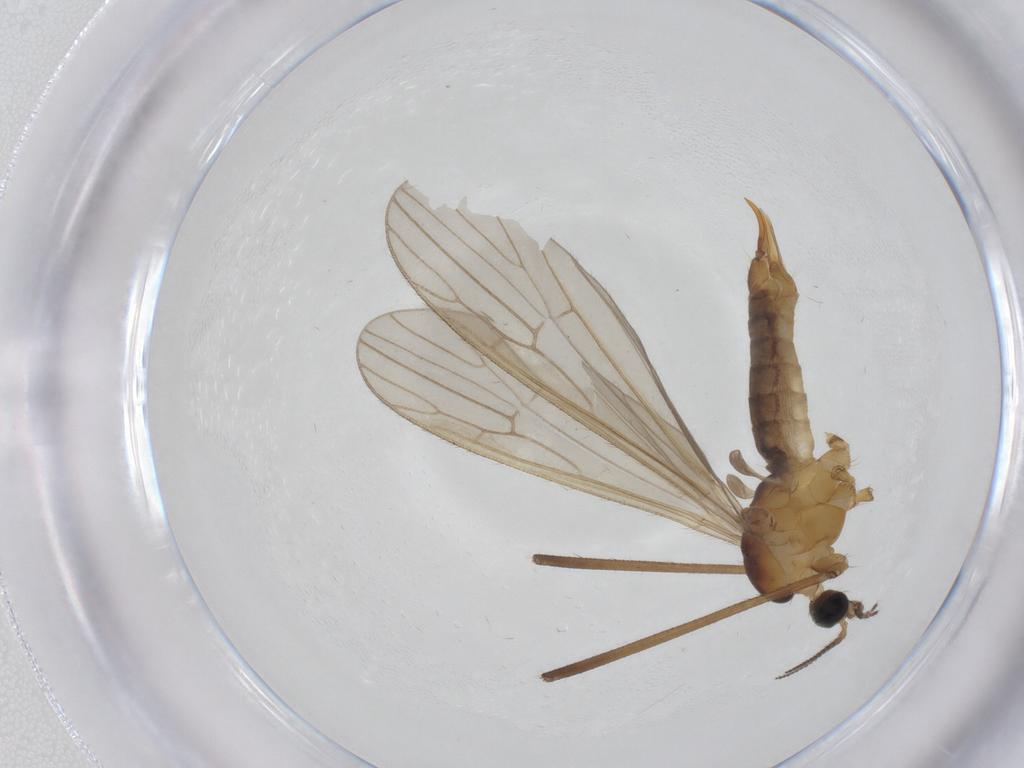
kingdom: Animalia
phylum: Arthropoda
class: Insecta
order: Diptera
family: Limoniidae
